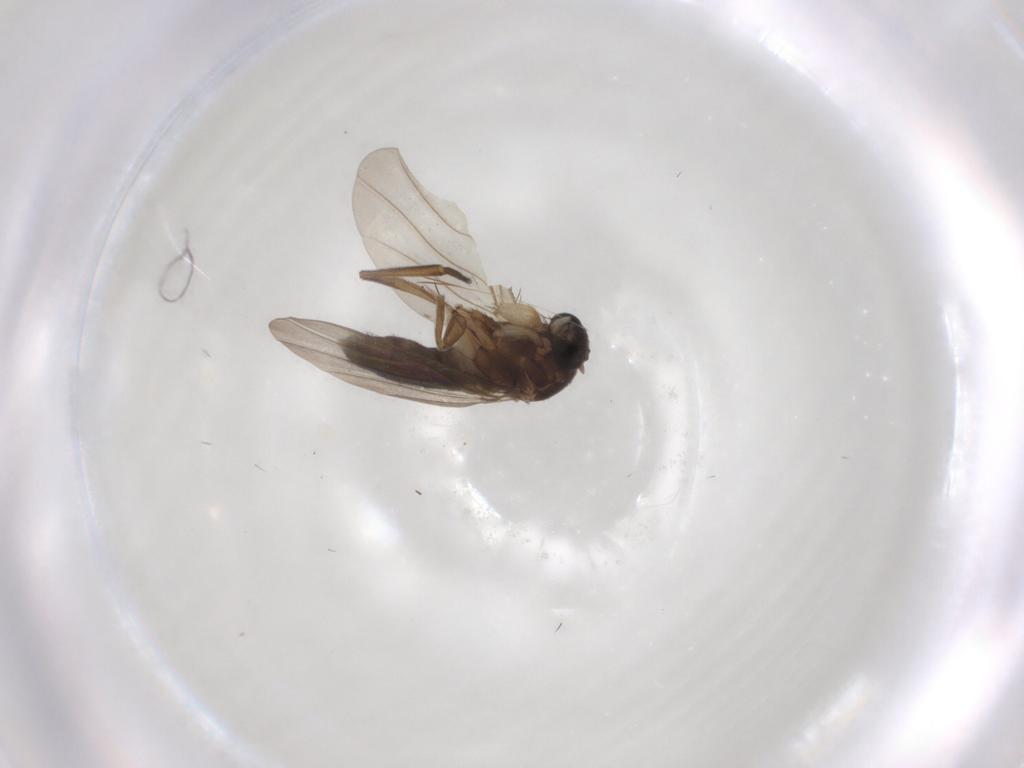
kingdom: Animalia
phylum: Arthropoda
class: Insecta
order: Diptera
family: Phoridae
